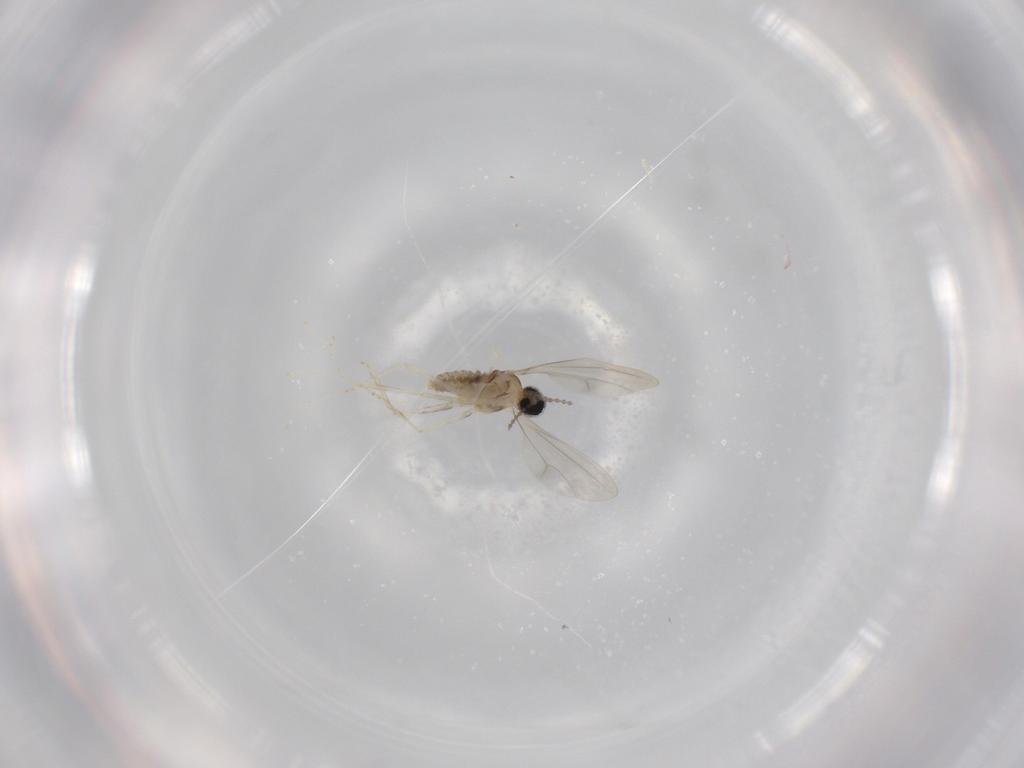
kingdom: Animalia
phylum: Arthropoda
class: Insecta
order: Diptera
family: Cecidomyiidae
